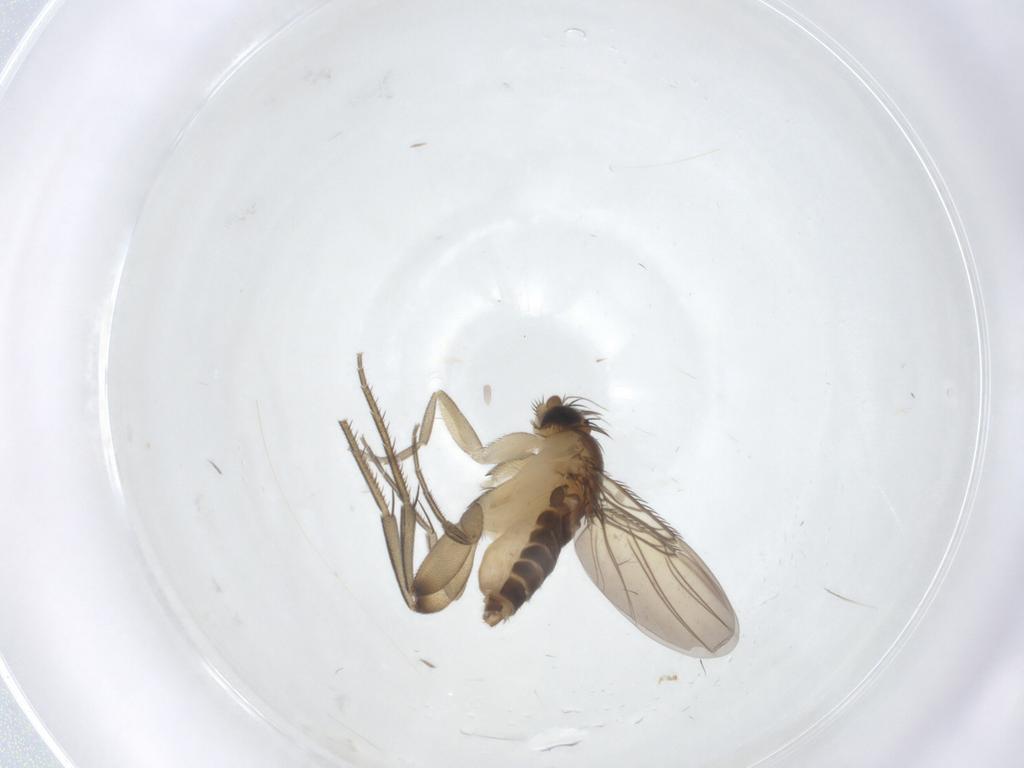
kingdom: Animalia
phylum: Arthropoda
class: Insecta
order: Diptera
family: Phoridae
